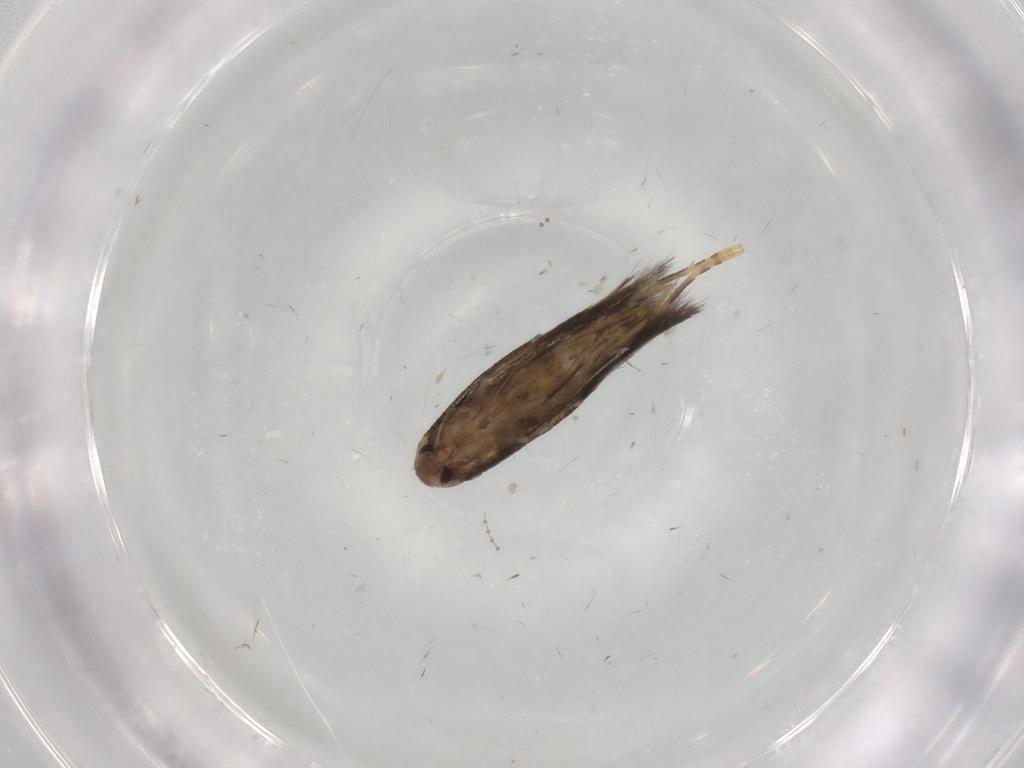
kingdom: Animalia
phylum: Arthropoda
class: Insecta
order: Lepidoptera
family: Elachistidae
